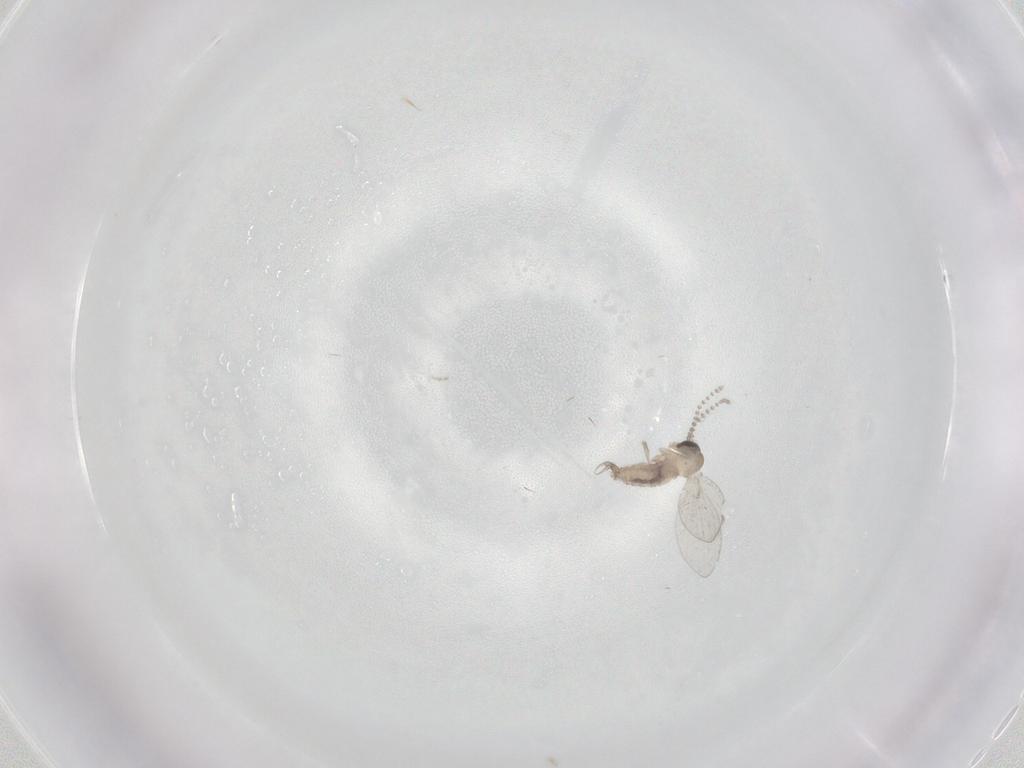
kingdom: Animalia
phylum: Arthropoda
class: Insecta
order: Diptera
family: Psychodidae
